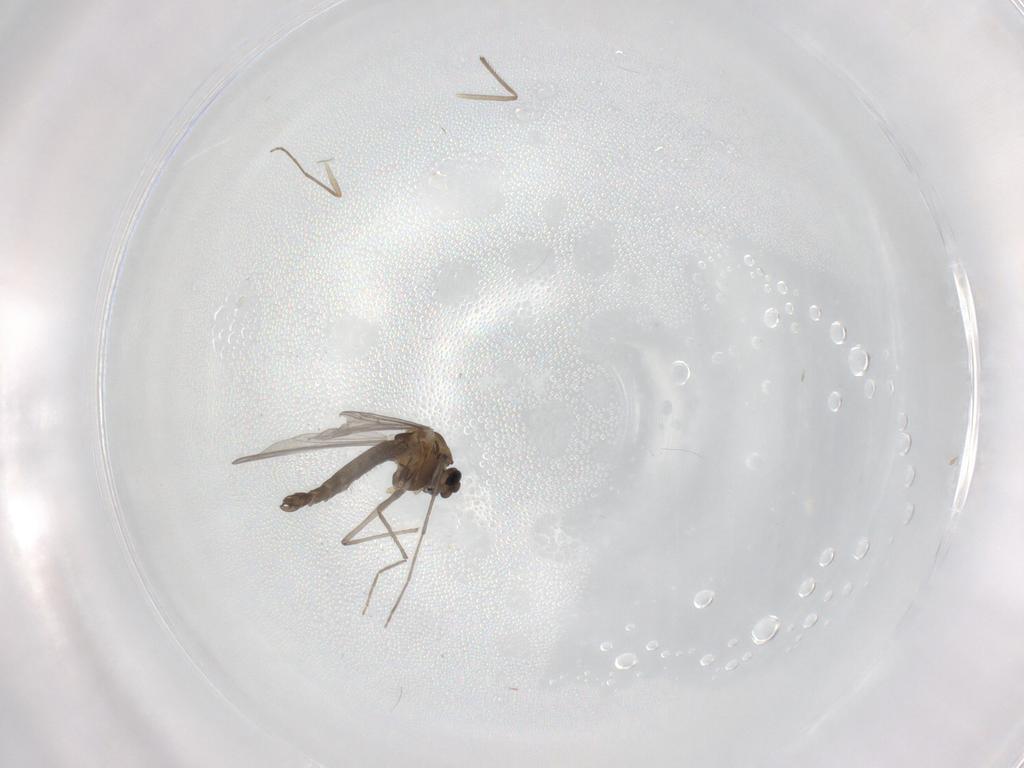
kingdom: Animalia
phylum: Arthropoda
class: Insecta
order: Diptera
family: Chironomidae
